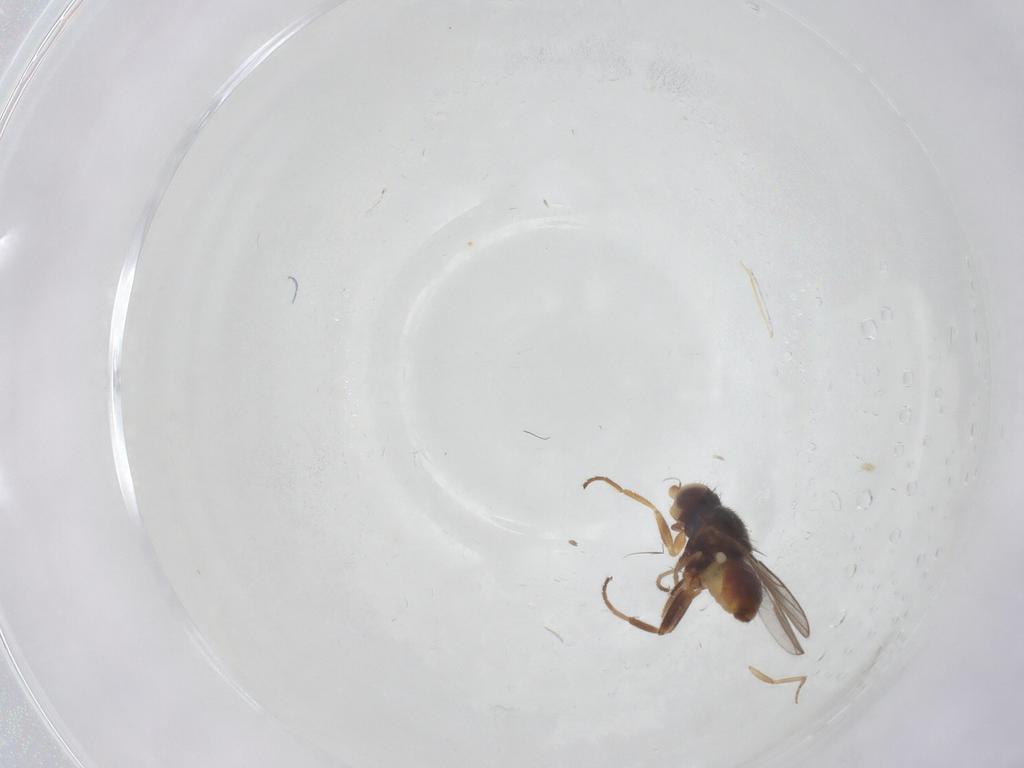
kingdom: Animalia
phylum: Arthropoda
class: Insecta
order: Diptera
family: Chloropidae
